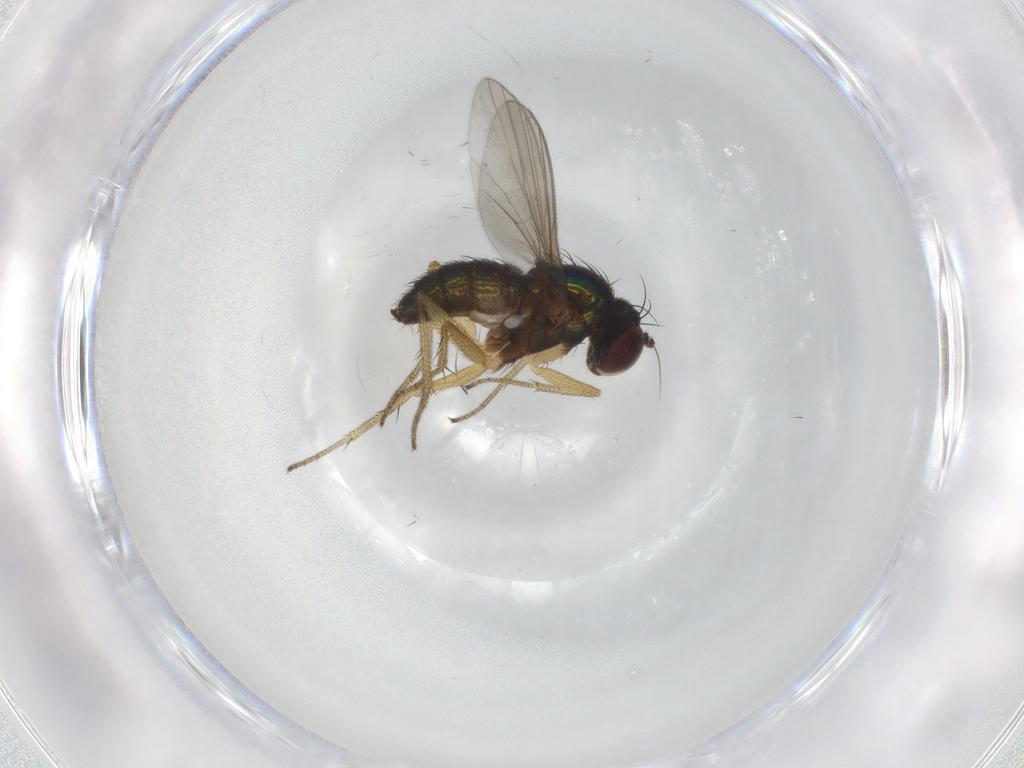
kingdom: Animalia
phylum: Arthropoda
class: Insecta
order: Diptera
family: Dolichopodidae
